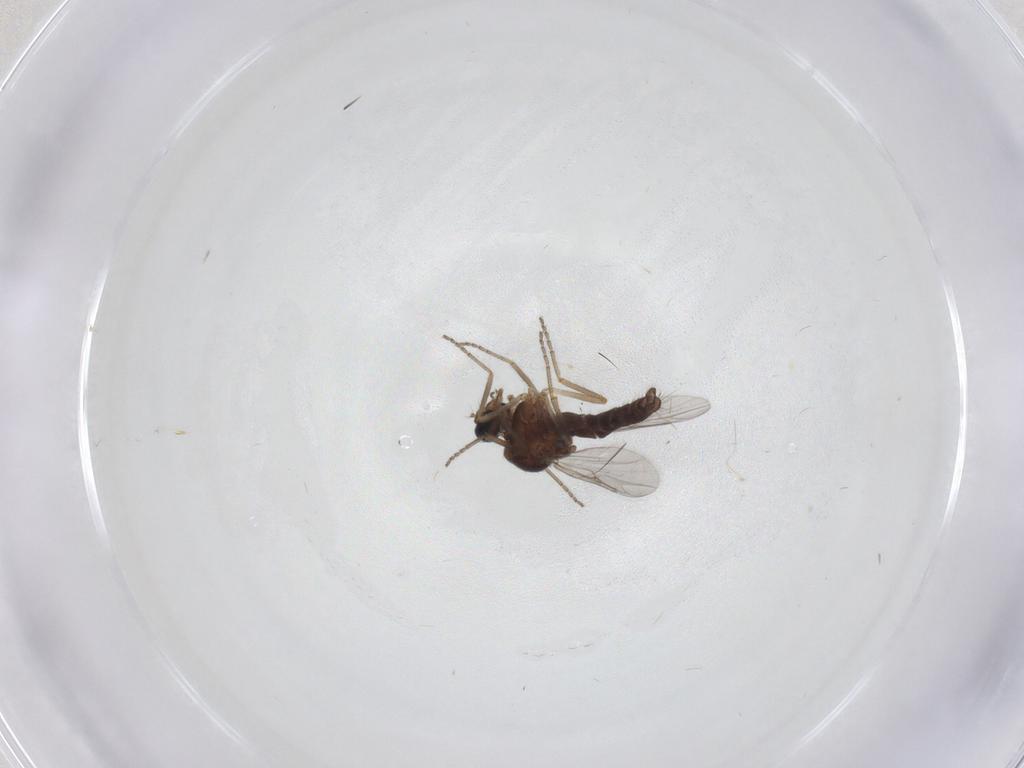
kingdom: Animalia
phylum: Arthropoda
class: Insecta
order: Diptera
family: Ceratopogonidae
